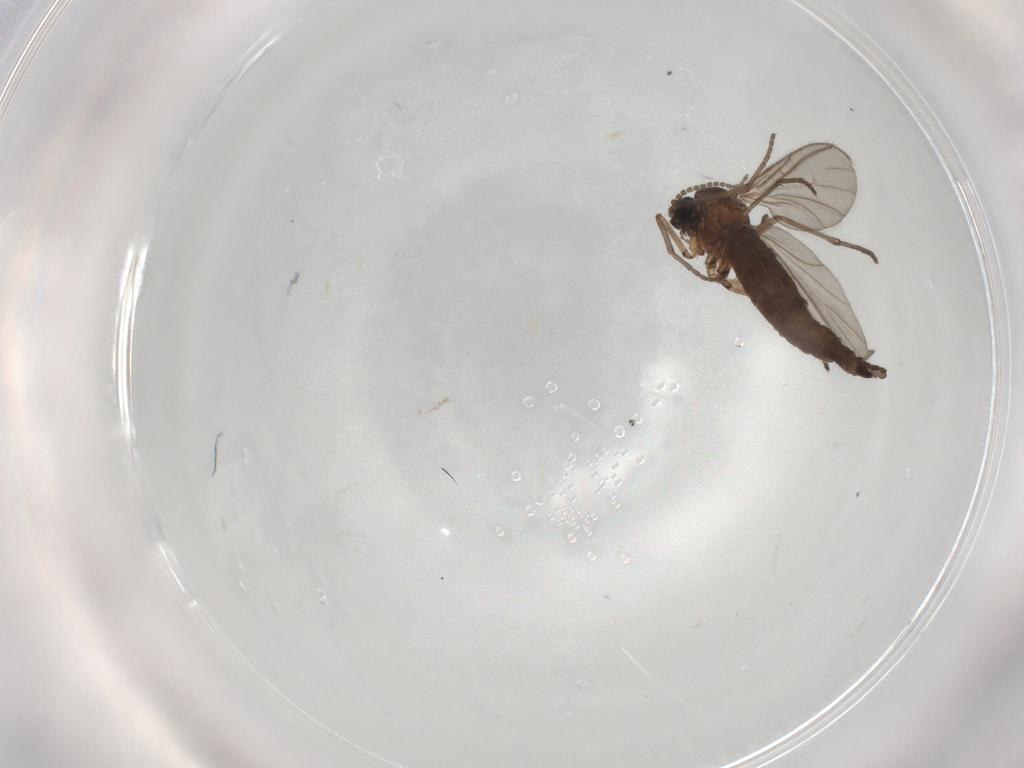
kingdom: Animalia
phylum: Arthropoda
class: Insecta
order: Diptera
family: Sciaridae
